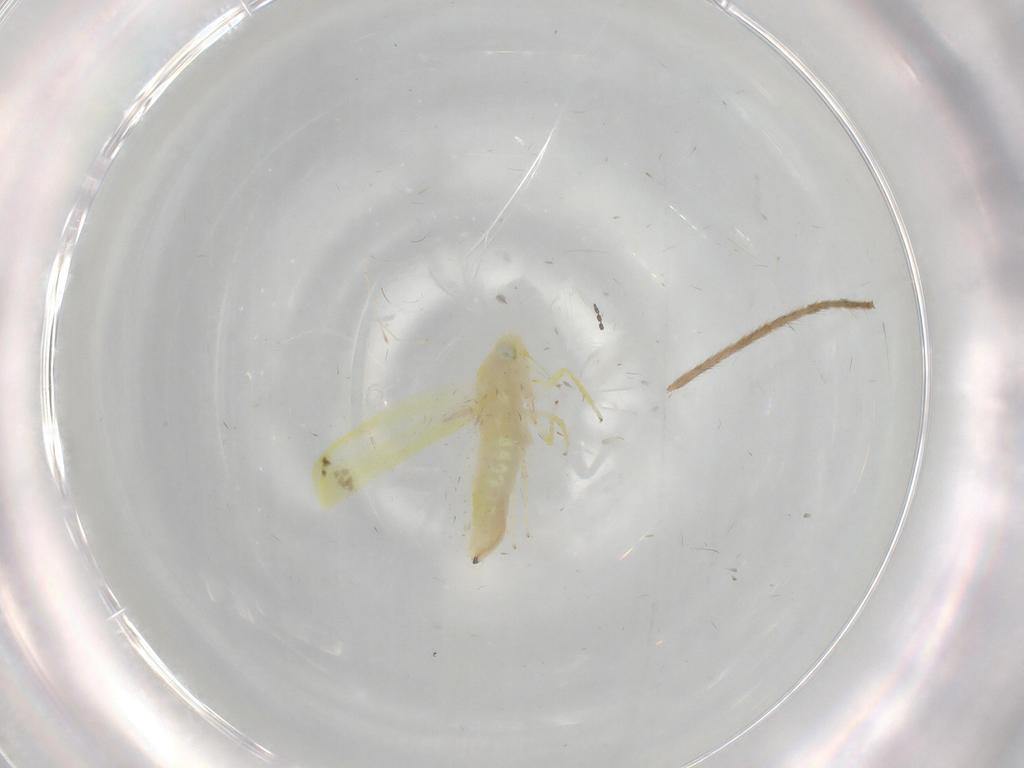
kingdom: Animalia
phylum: Arthropoda
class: Insecta
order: Hemiptera
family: Cicadellidae
